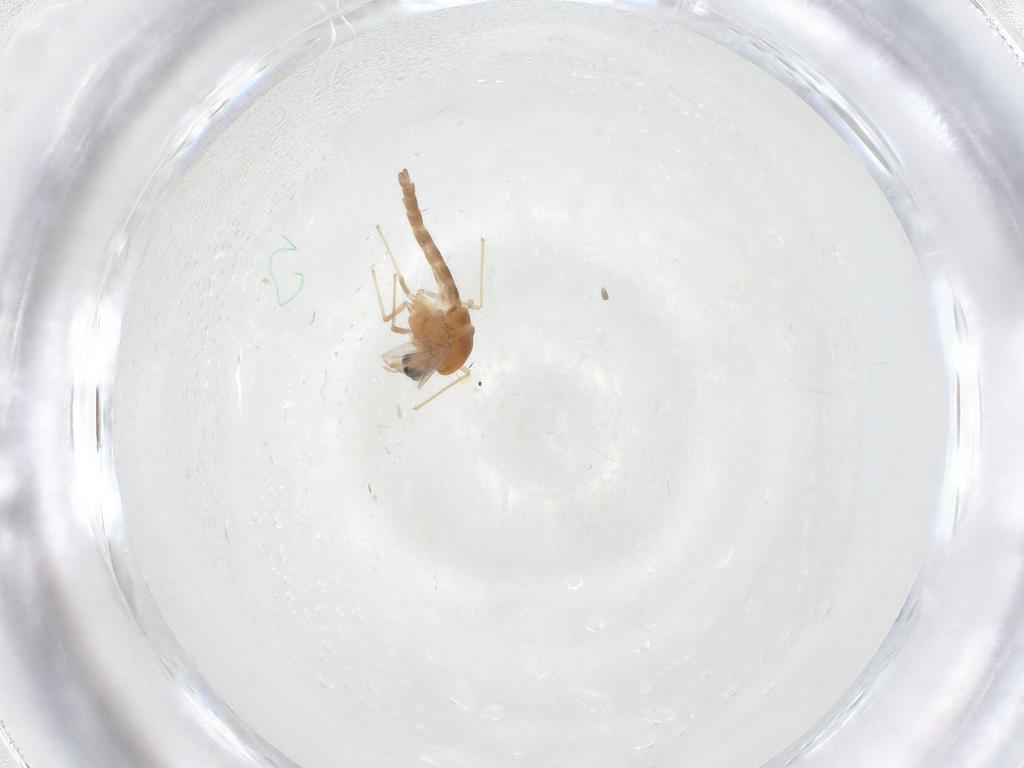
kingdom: Animalia
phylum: Arthropoda
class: Insecta
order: Diptera
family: Chironomidae
